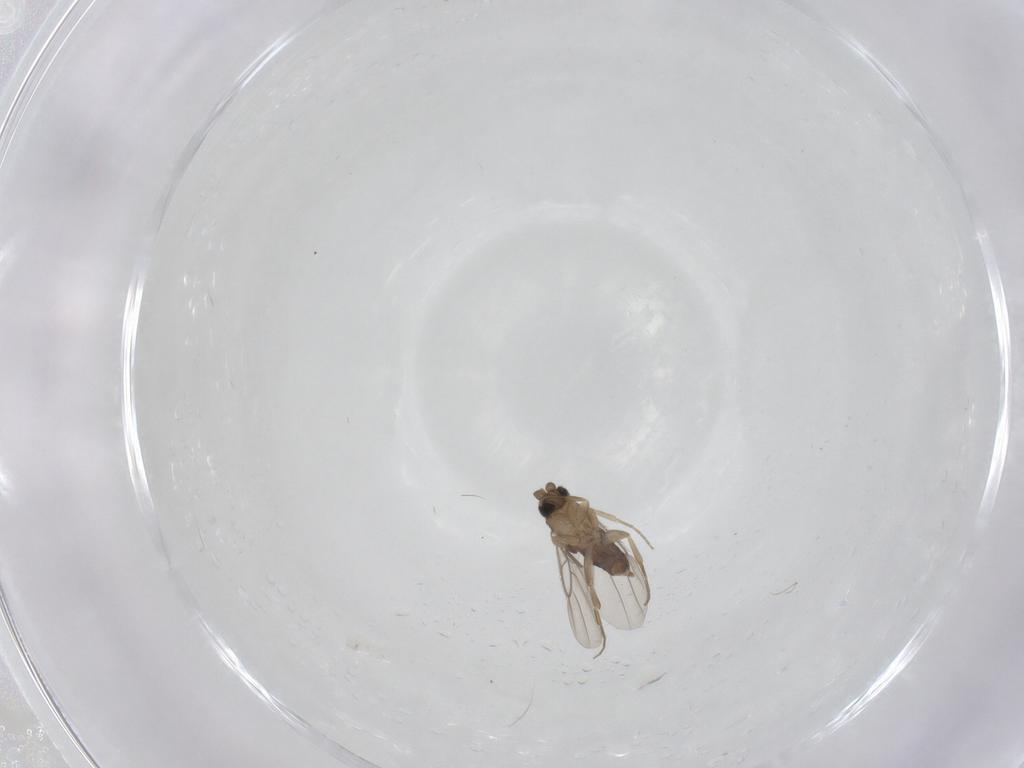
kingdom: Animalia
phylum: Arthropoda
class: Insecta
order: Diptera
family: Phoridae
